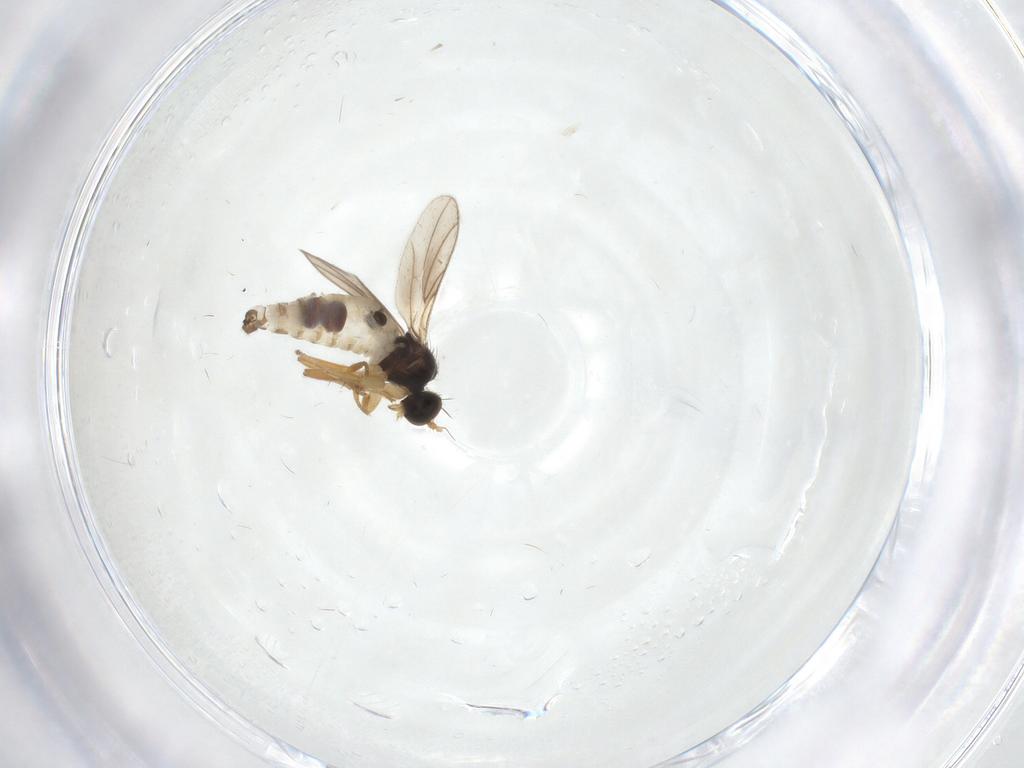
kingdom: Animalia
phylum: Arthropoda
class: Insecta
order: Diptera
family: Hybotidae
